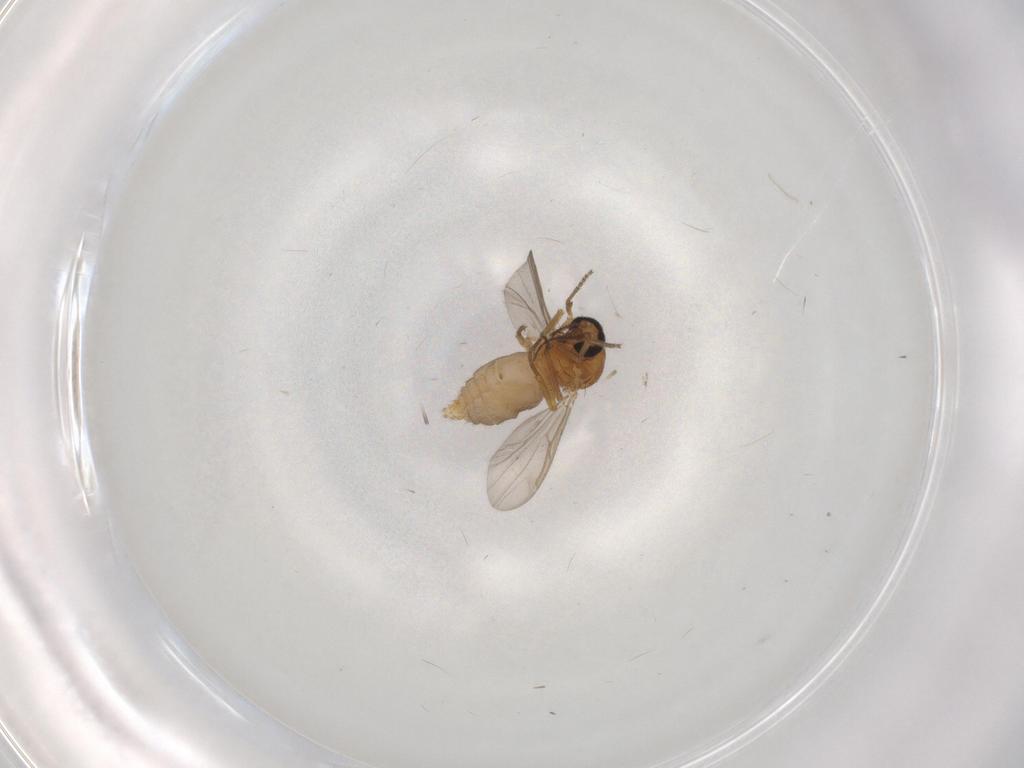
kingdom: Animalia
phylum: Arthropoda
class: Insecta
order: Diptera
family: Ceratopogonidae
